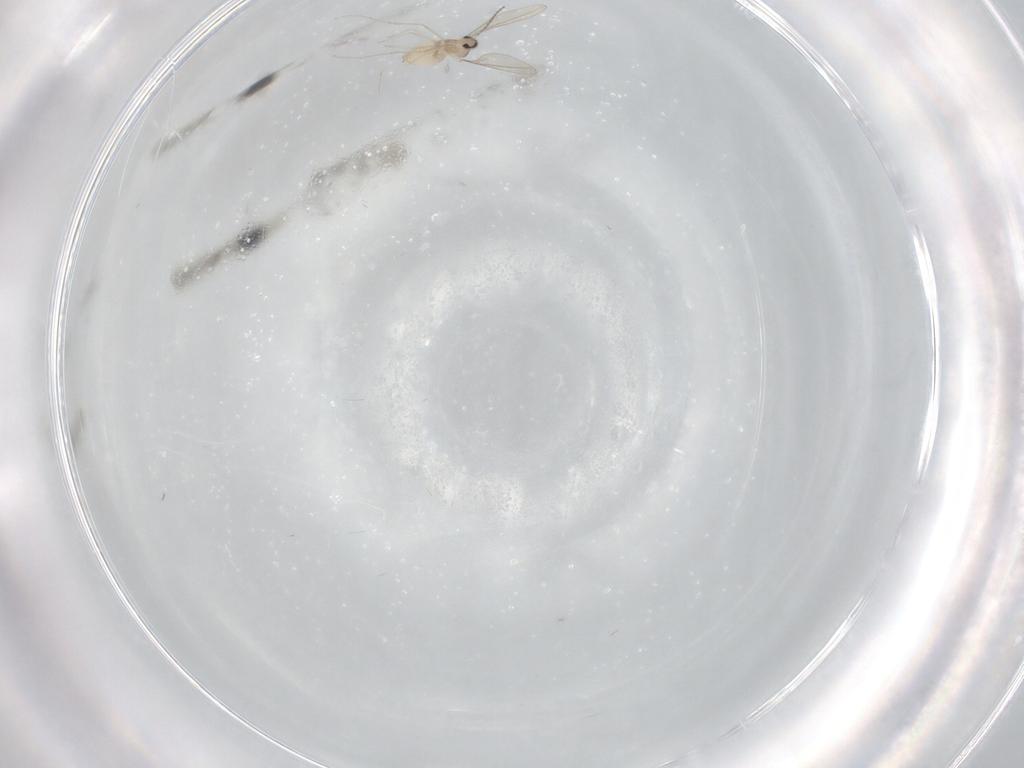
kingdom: Animalia
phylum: Arthropoda
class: Insecta
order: Diptera
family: Cecidomyiidae
